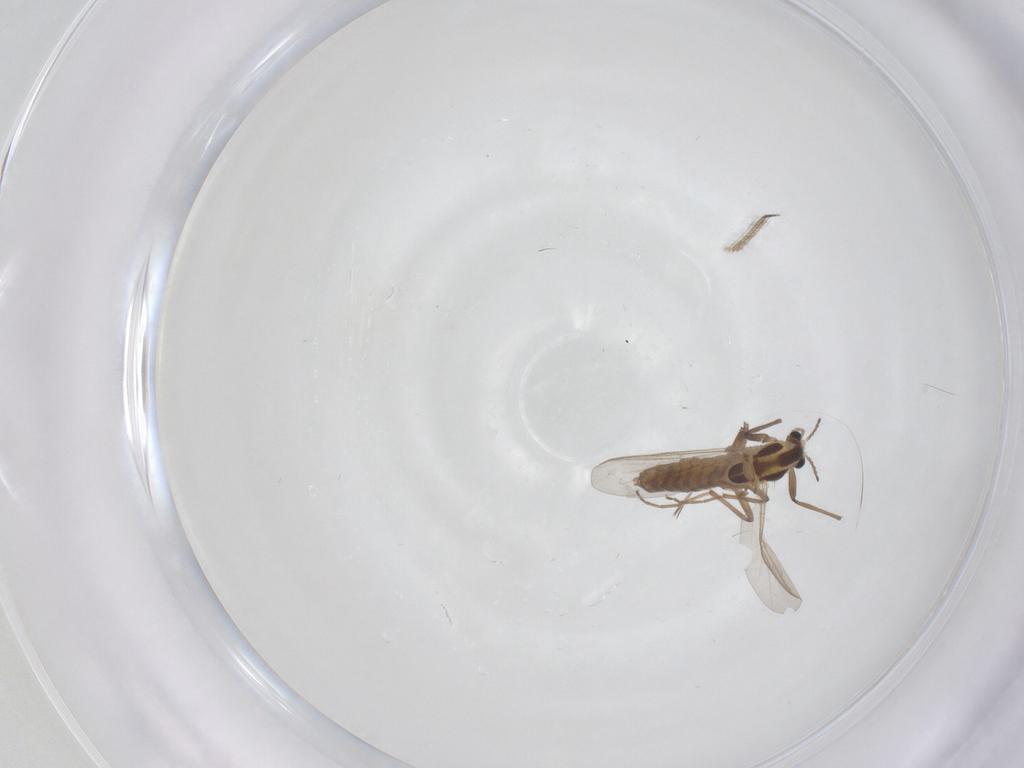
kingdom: Animalia
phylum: Arthropoda
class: Insecta
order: Diptera
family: Chironomidae
